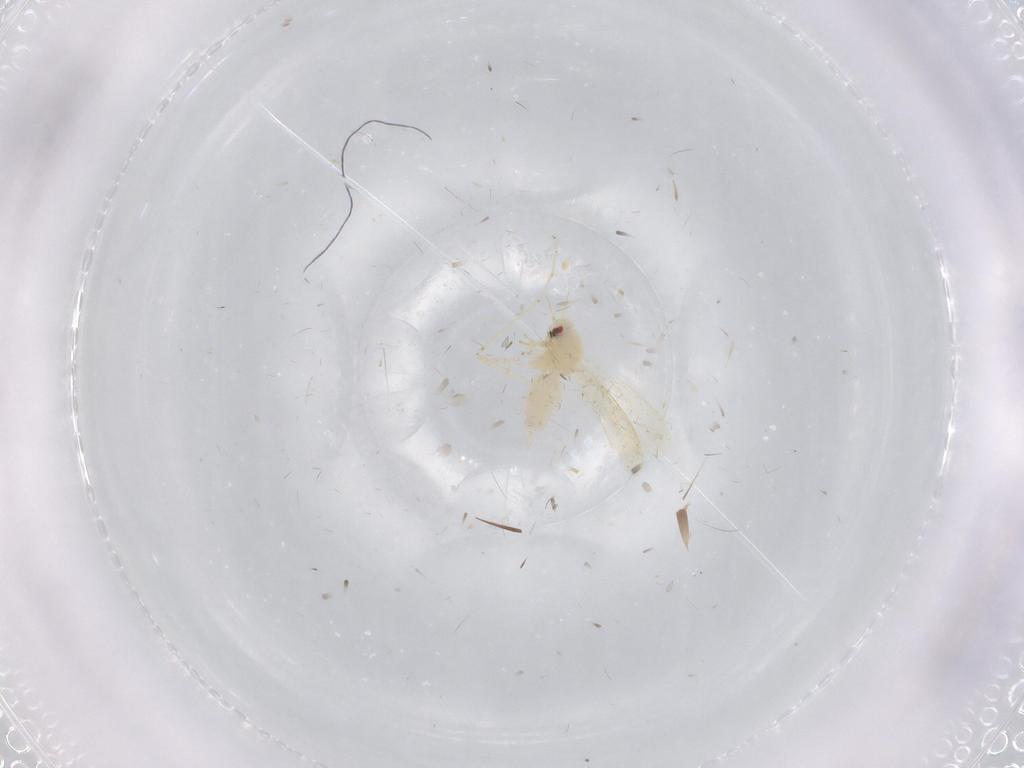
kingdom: Animalia
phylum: Arthropoda
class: Insecta
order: Hemiptera
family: Aleyrodidae
